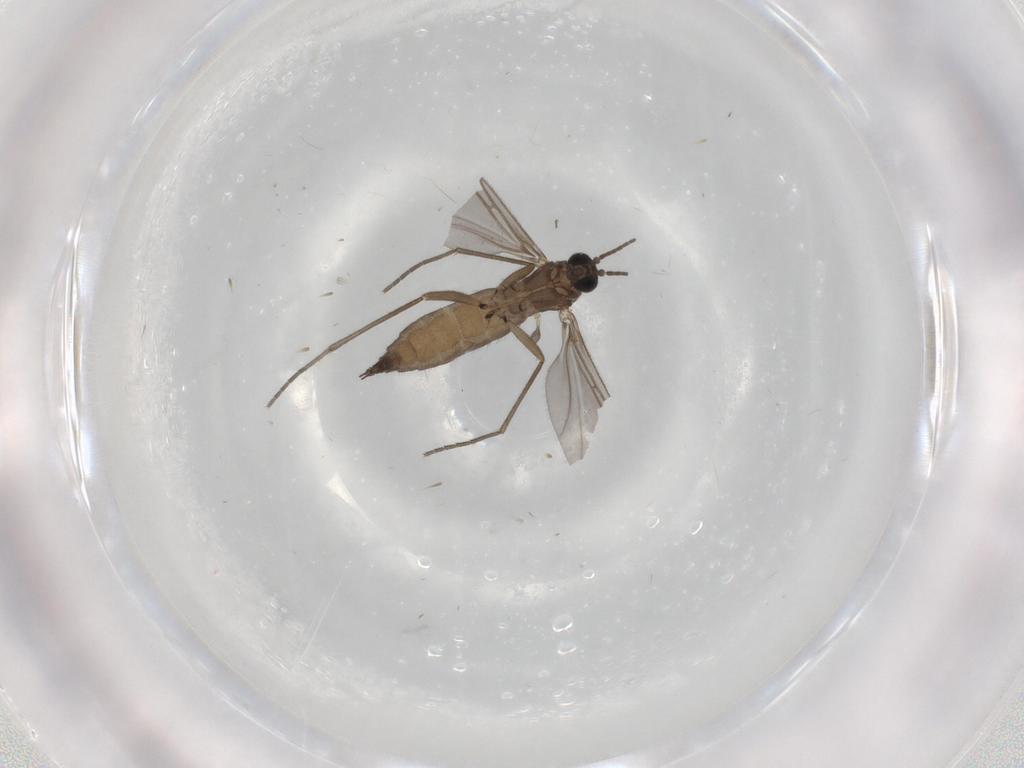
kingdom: Animalia
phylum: Arthropoda
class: Insecta
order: Diptera
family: Sciaridae
